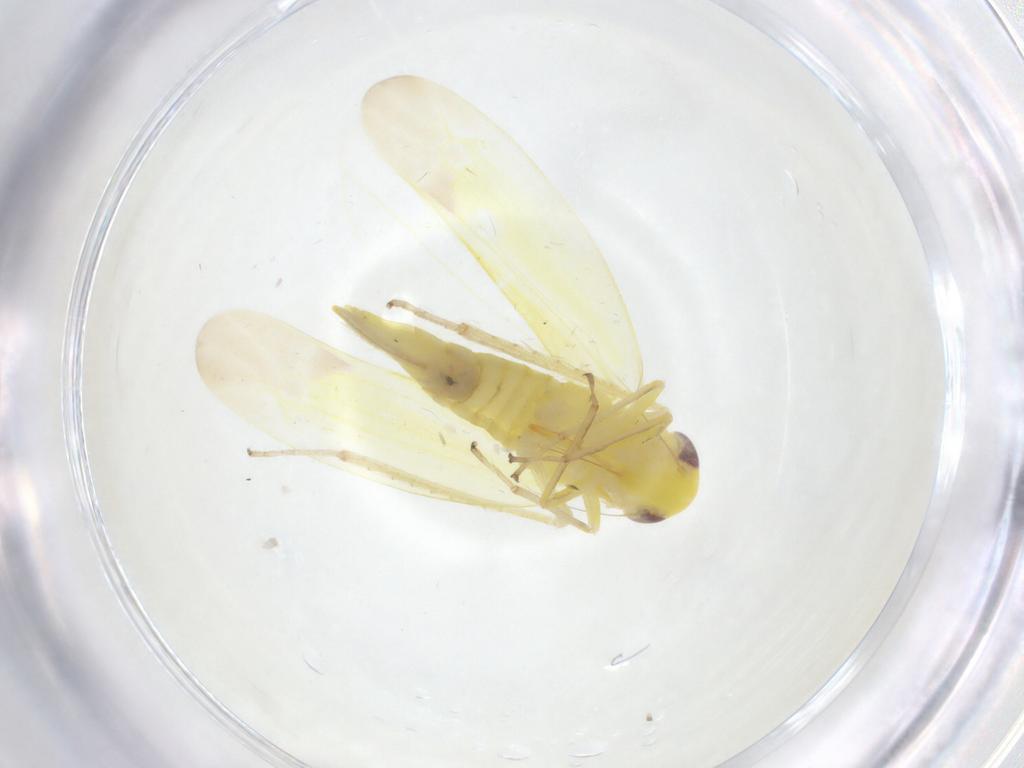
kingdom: Animalia
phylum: Arthropoda
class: Insecta
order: Hemiptera
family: Cicadellidae
